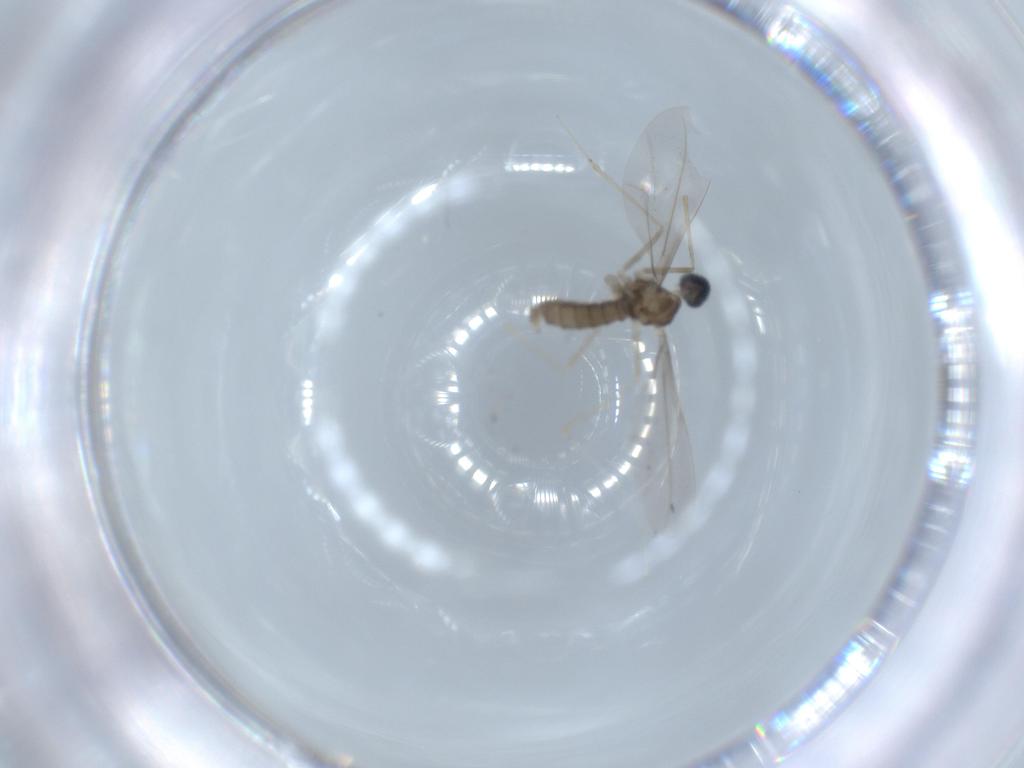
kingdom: Animalia
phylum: Arthropoda
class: Insecta
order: Diptera
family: Cecidomyiidae
